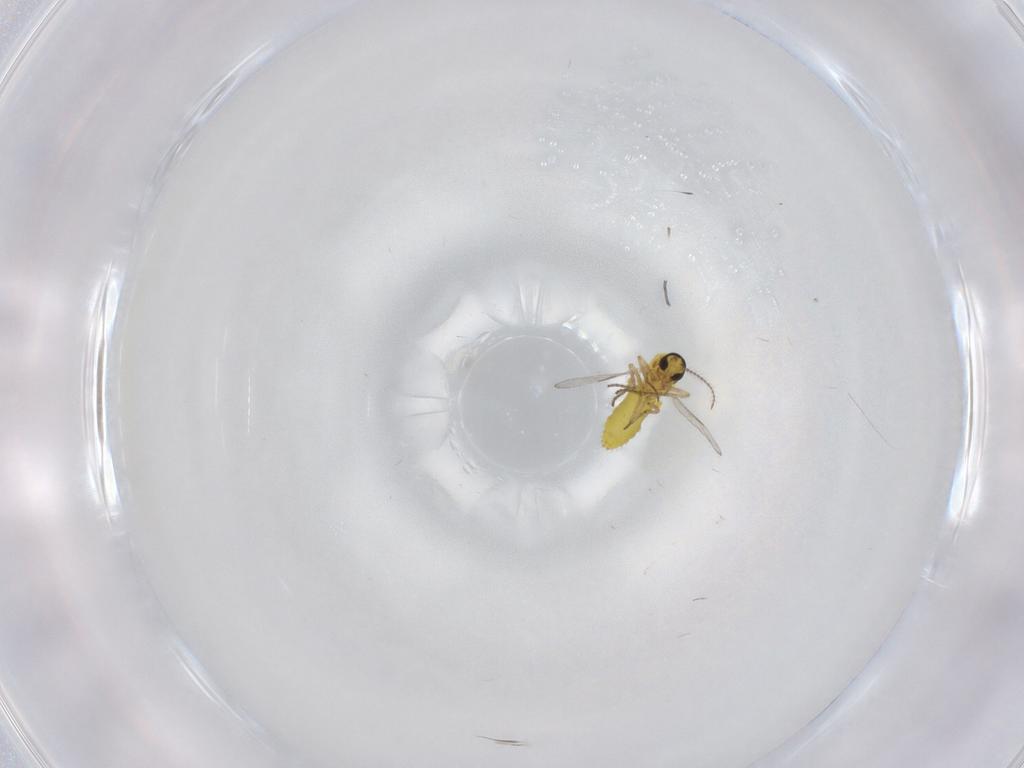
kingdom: Animalia
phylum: Arthropoda
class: Insecta
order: Diptera
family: Ceratopogonidae
